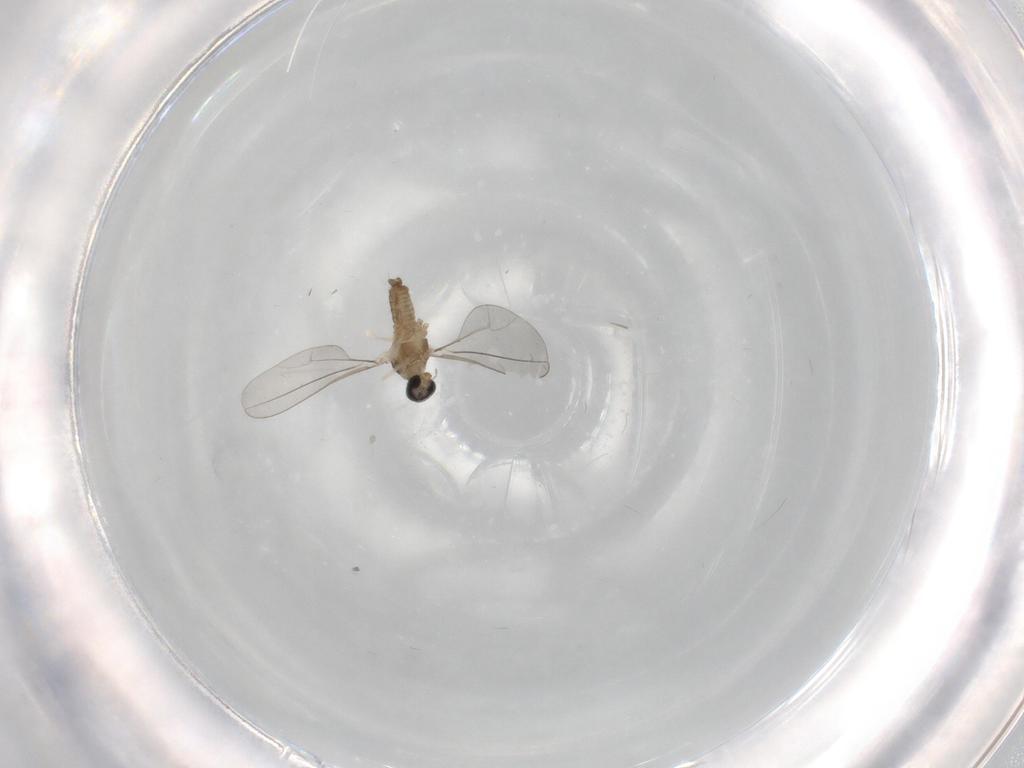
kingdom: Animalia
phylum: Arthropoda
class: Insecta
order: Diptera
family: Cecidomyiidae
